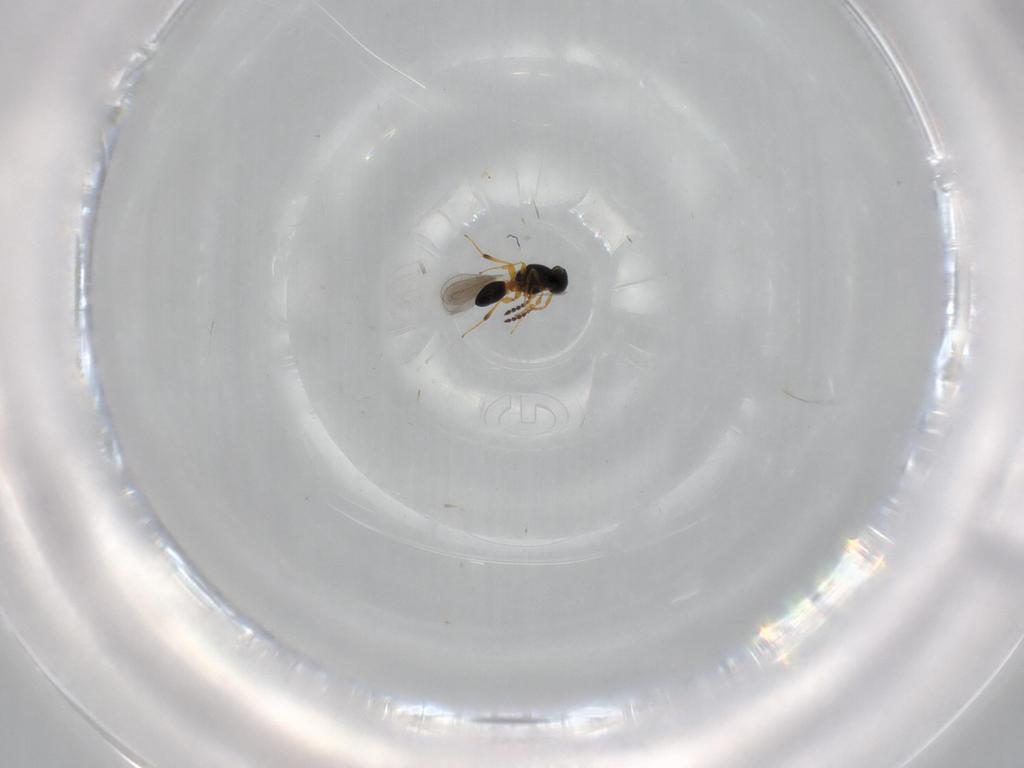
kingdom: Animalia
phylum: Arthropoda
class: Insecta
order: Hymenoptera
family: Platygastridae
